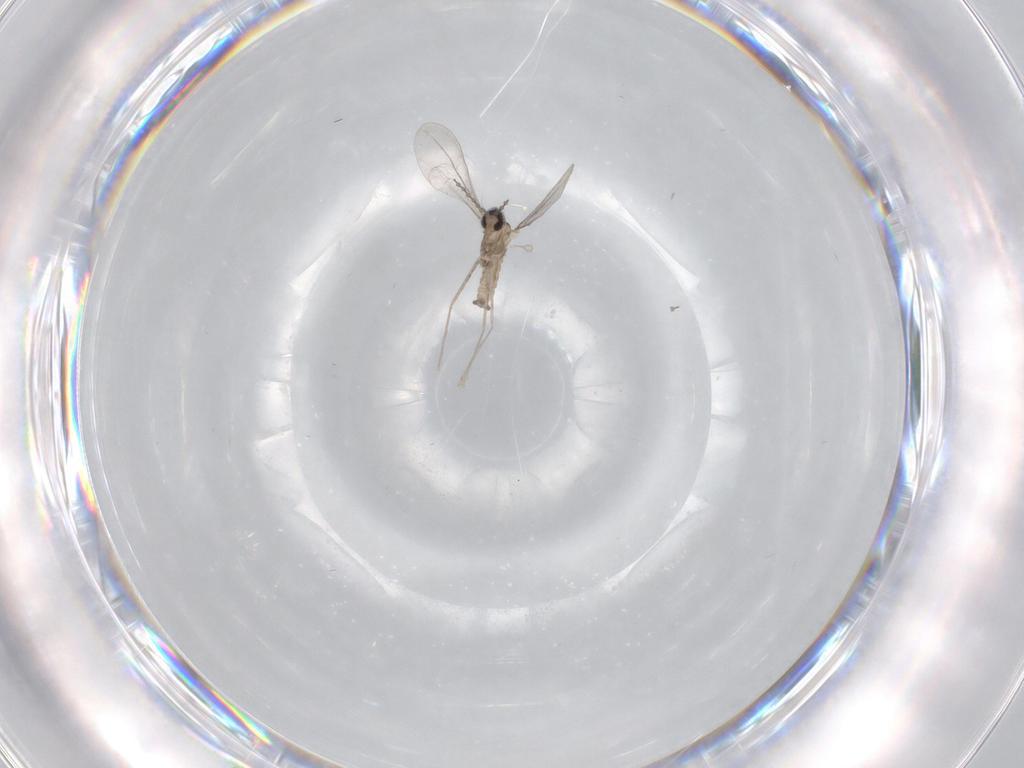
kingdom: Animalia
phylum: Arthropoda
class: Insecta
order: Diptera
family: Cecidomyiidae
